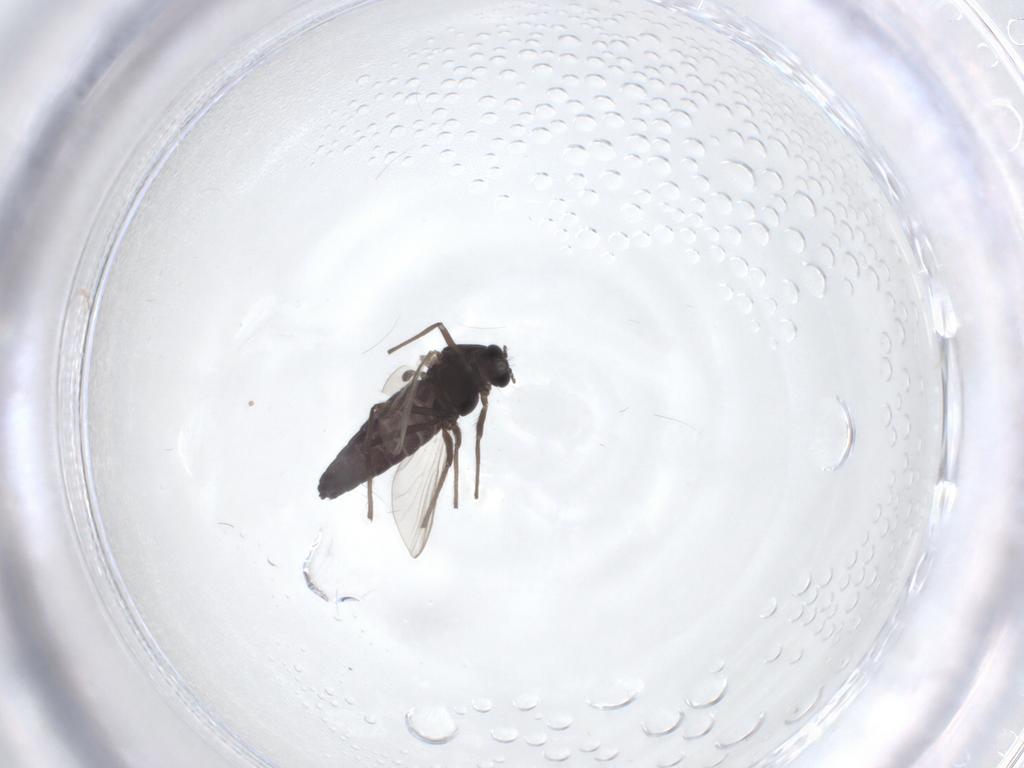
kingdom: Animalia
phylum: Arthropoda
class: Insecta
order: Diptera
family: Chironomidae
